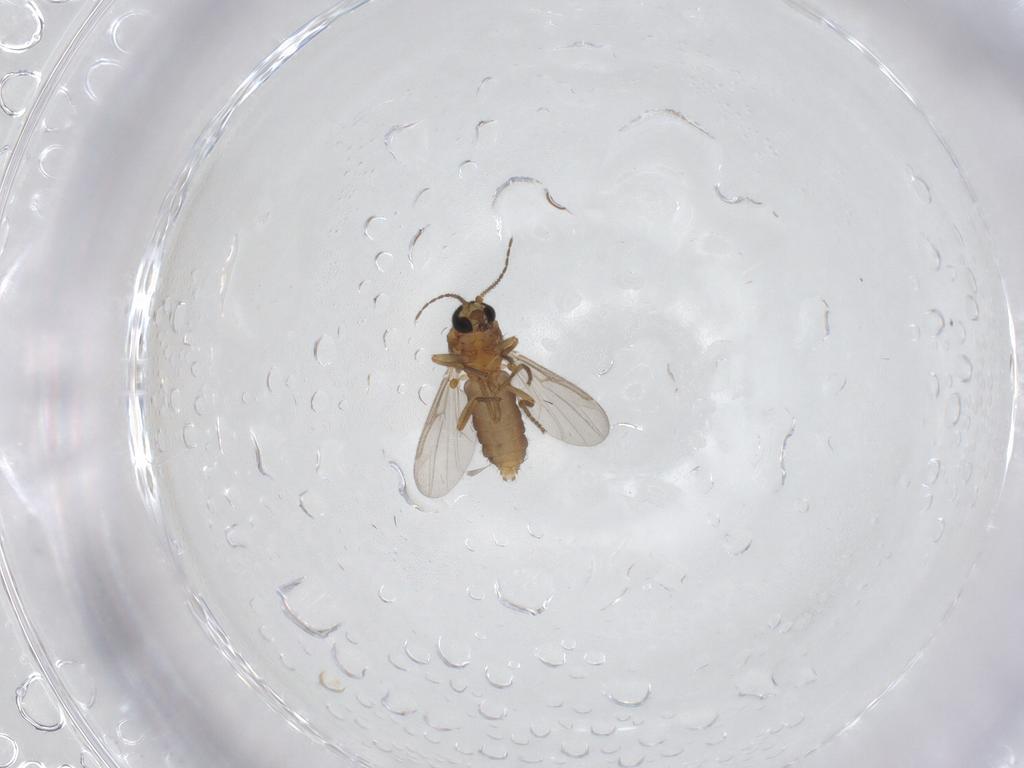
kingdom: Animalia
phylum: Arthropoda
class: Insecta
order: Diptera
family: Ceratopogonidae
